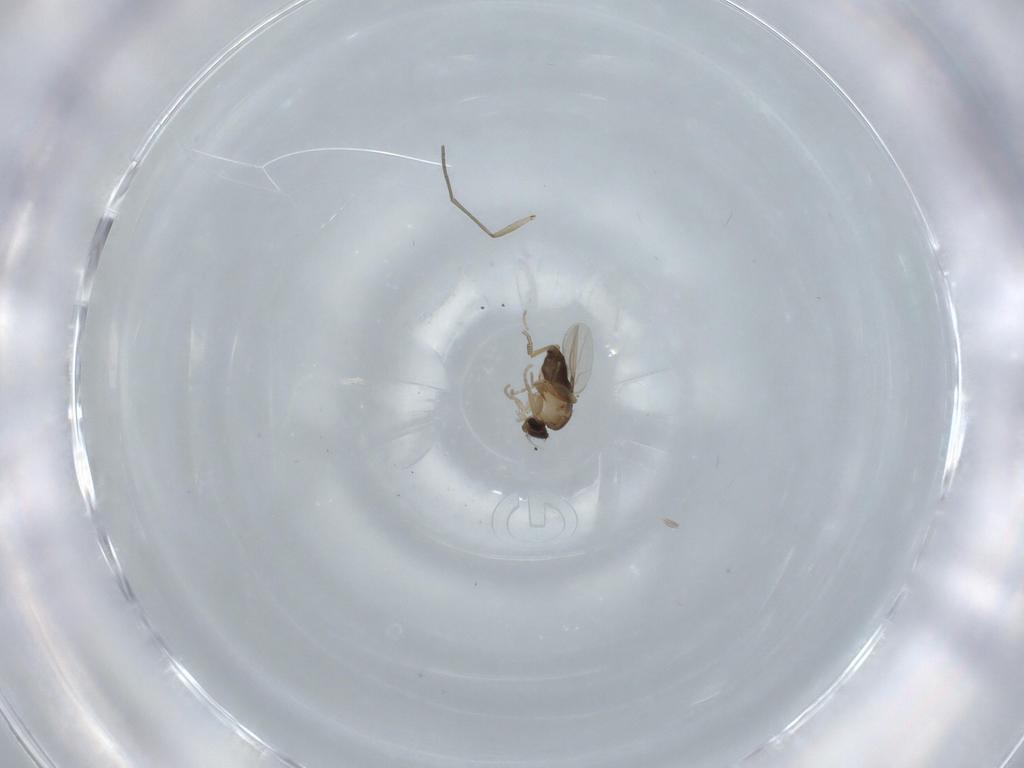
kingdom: Animalia
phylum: Arthropoda
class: Insecta
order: Diptera
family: Phoridae
